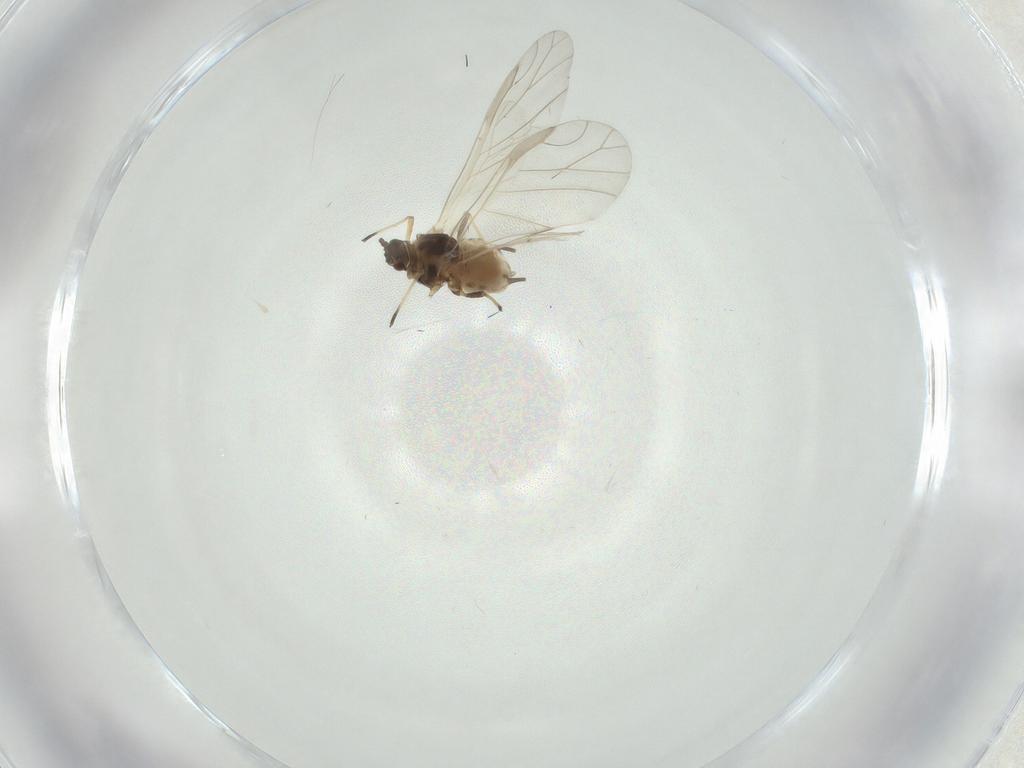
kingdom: Animalia
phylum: Arthropoda
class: Insecta
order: Hemiptera
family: Aphididae
